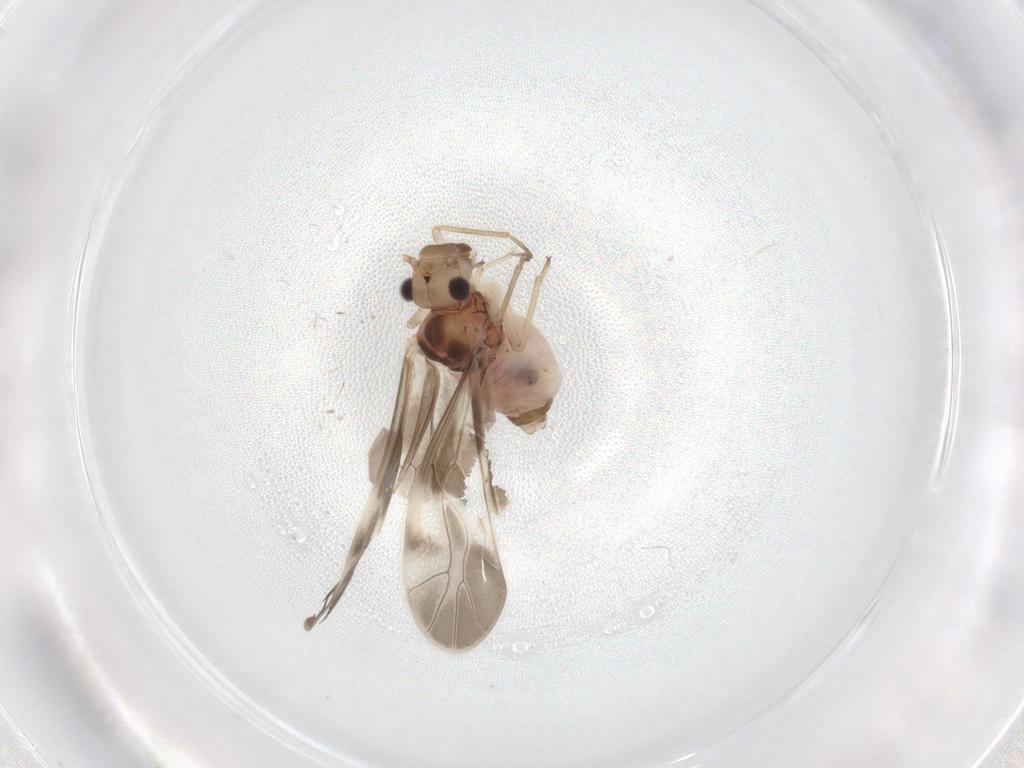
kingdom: Animalia
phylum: Arthropoda
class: Insecta
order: Psocodea
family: Caeciliusidae
